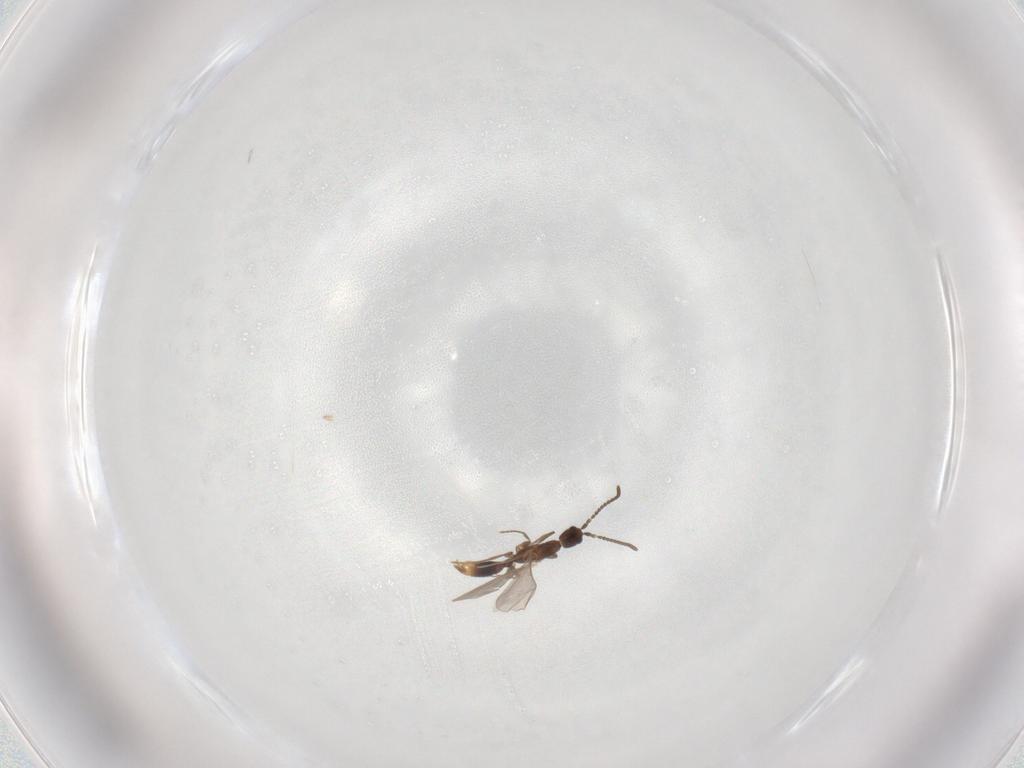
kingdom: Animalia
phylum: Arthropoda
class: Insecta
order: Hymenoptera
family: Formicidae
